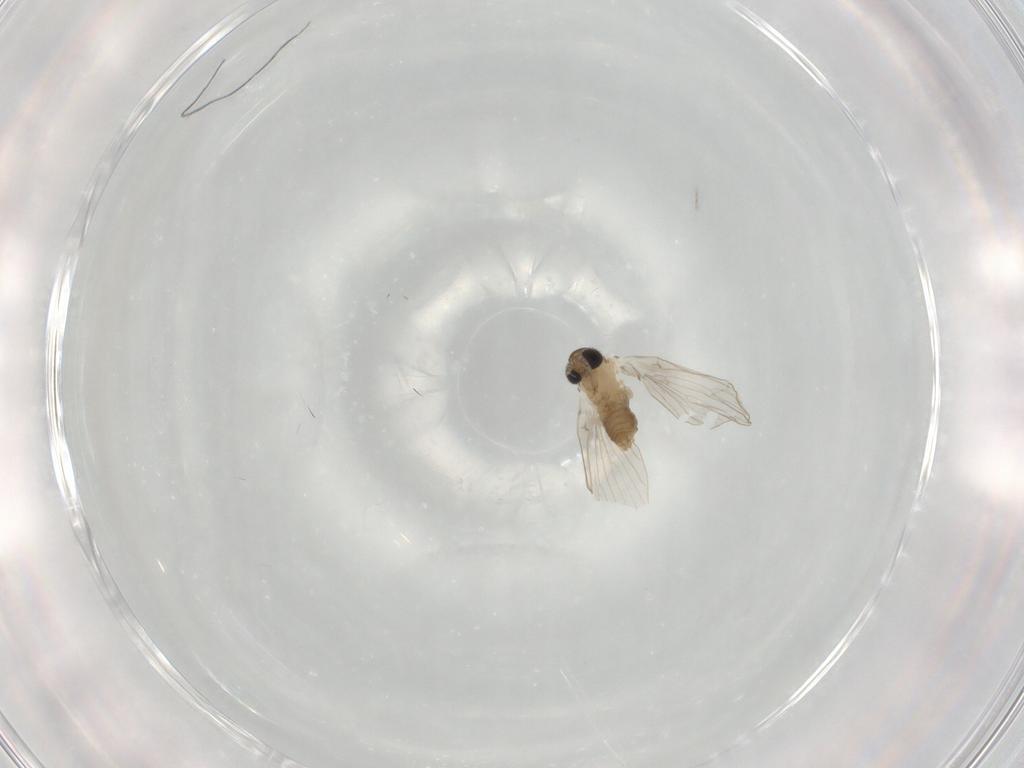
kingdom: Animalia
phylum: Arthropoda
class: Insecta
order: Diptera
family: Psychodidae
